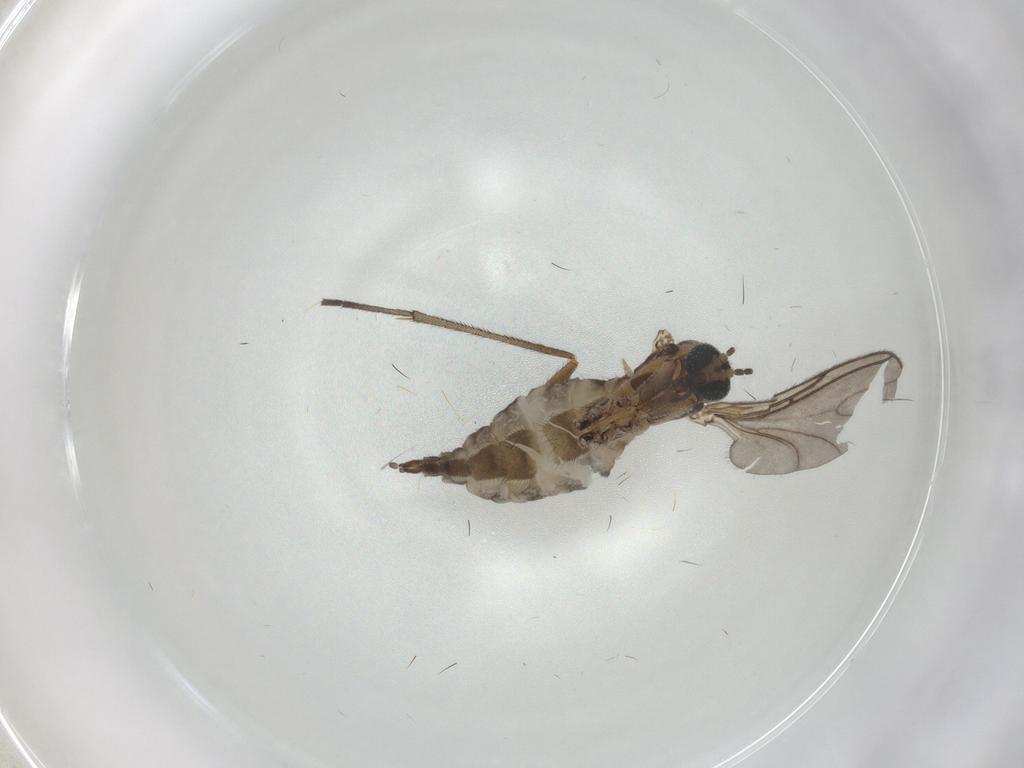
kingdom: Animalia
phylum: Arthropoda
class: Insecta
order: Diptera
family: Sciaridae
